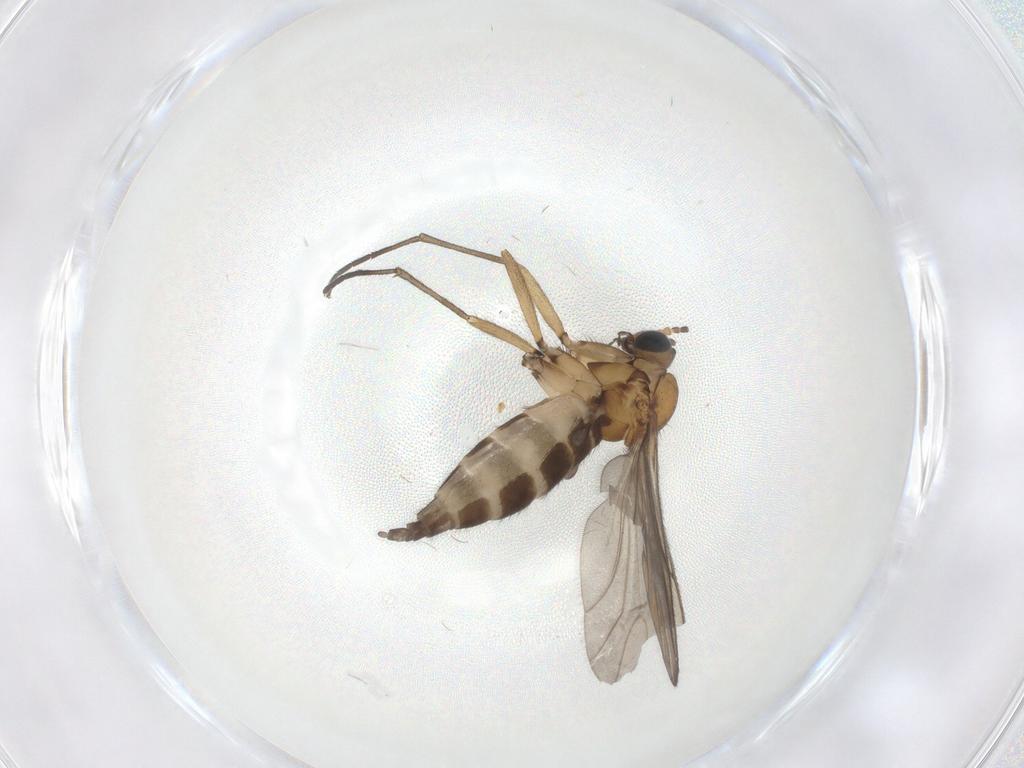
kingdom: Animalia
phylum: Arthropoda
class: Insecta
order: Diptera
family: Sciaridae
